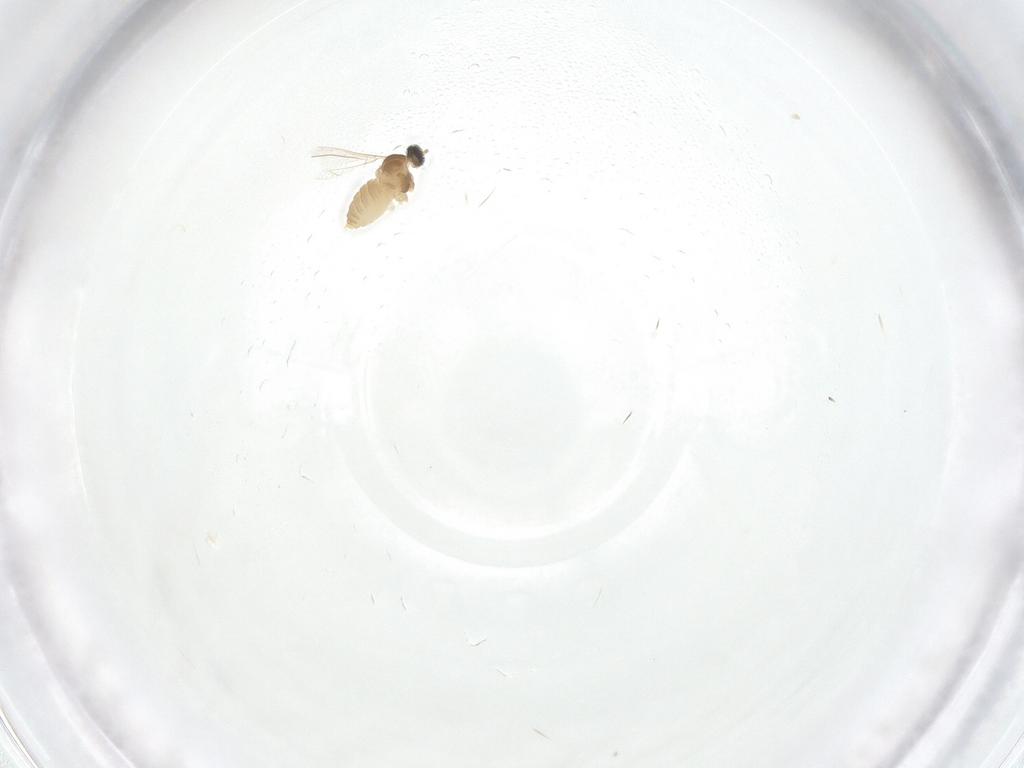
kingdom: Animalia
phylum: Arthropoda
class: Insecta
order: Diptera
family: Cecidomyiidae
